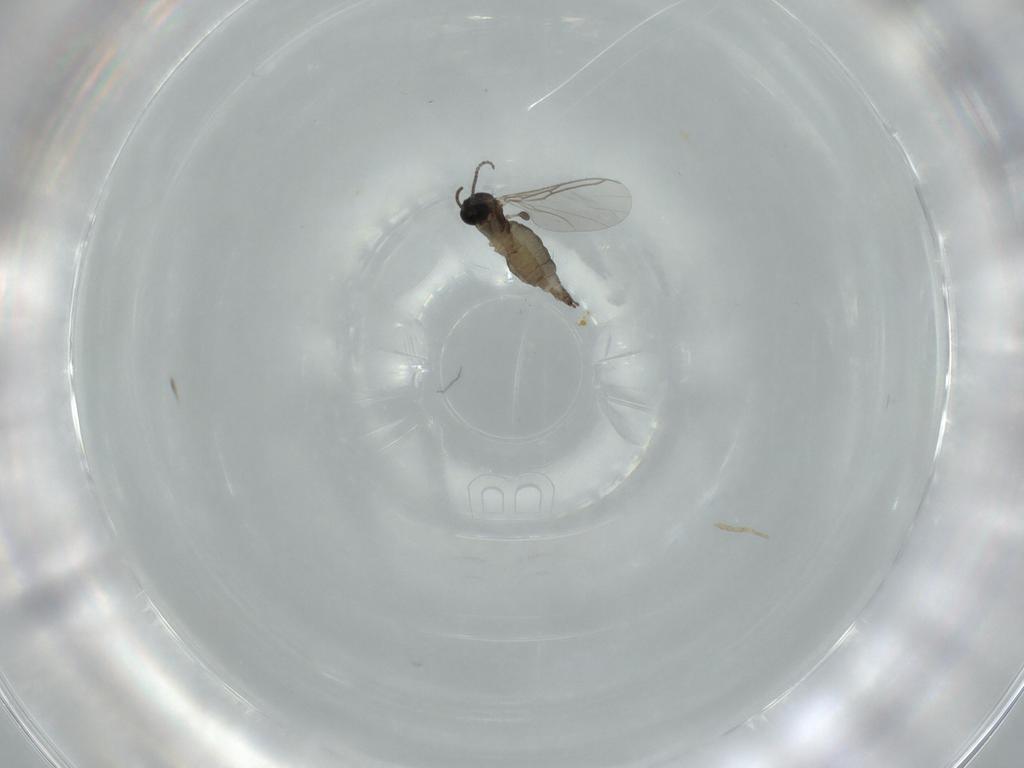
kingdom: Animalia
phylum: Arthropoda
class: Insecta
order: Diptera
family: Sciaridae
